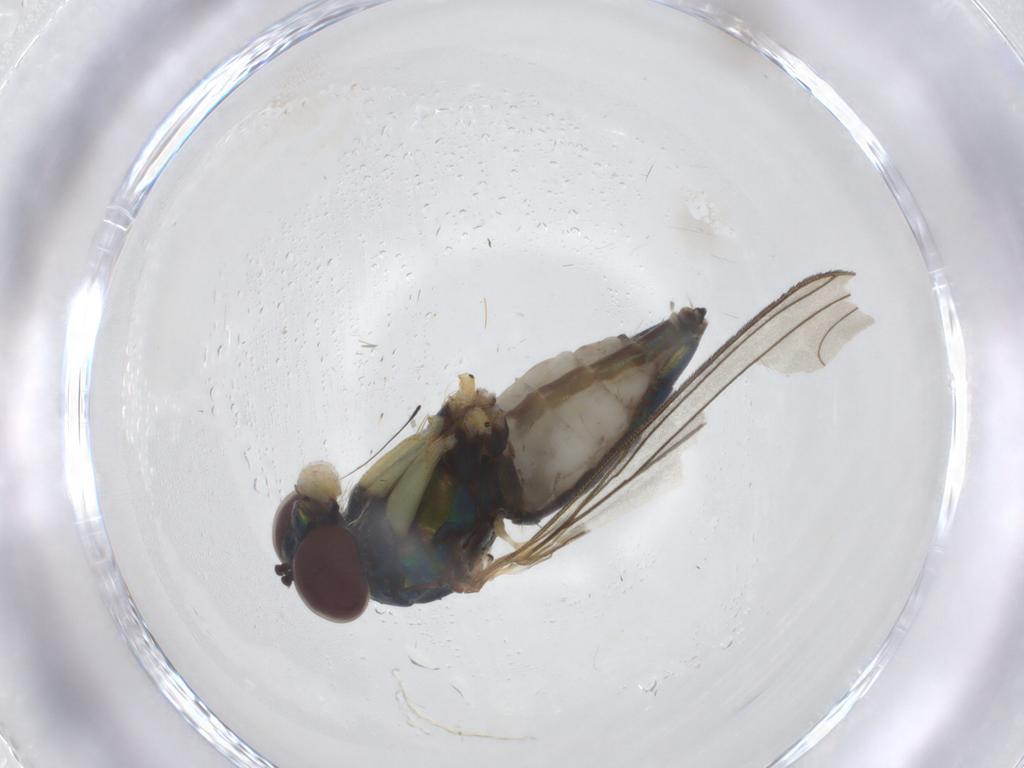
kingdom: Animalia
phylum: Arthropoda
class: Insecta
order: Diptera
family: Dolichopodidae
